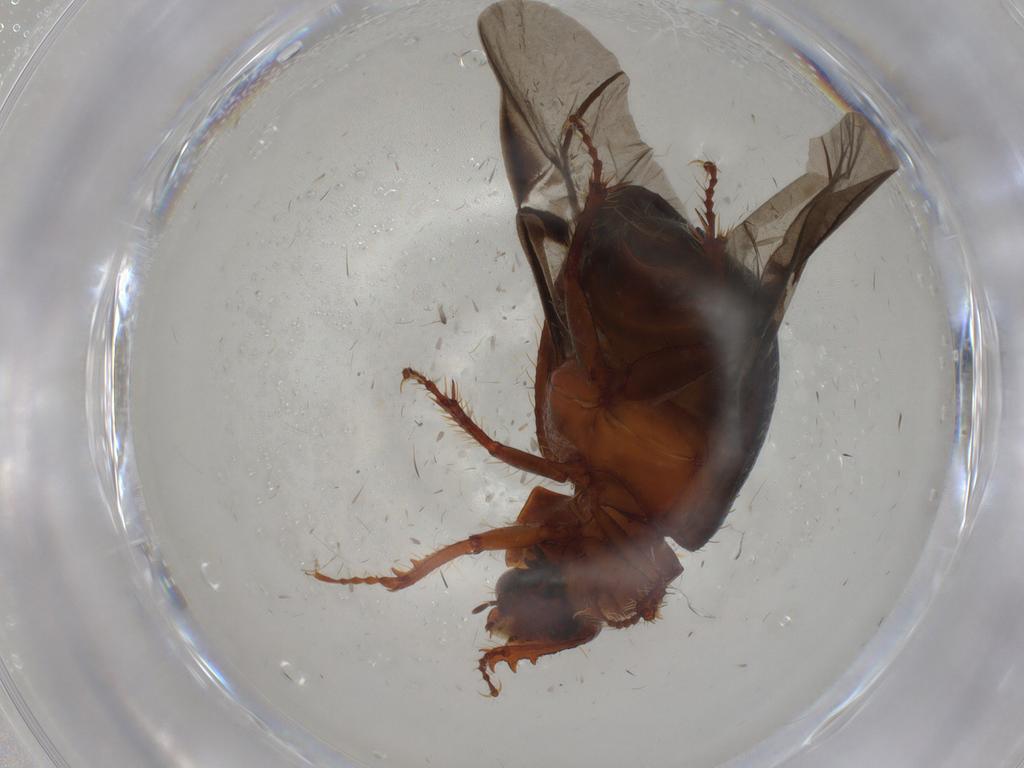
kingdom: Animalia
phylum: Arthropoda
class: Insecta
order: Coleoptera
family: Hybosoridae
